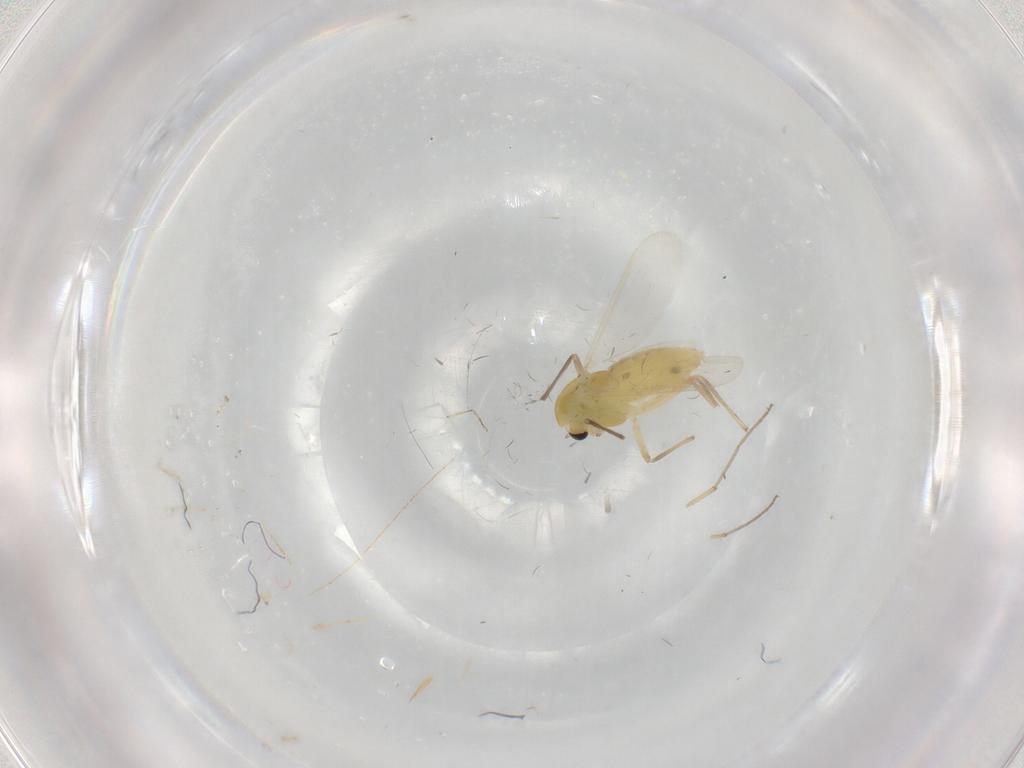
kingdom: Animalia
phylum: Arthropoda
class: Insecta
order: Diptera
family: Chironomidae
